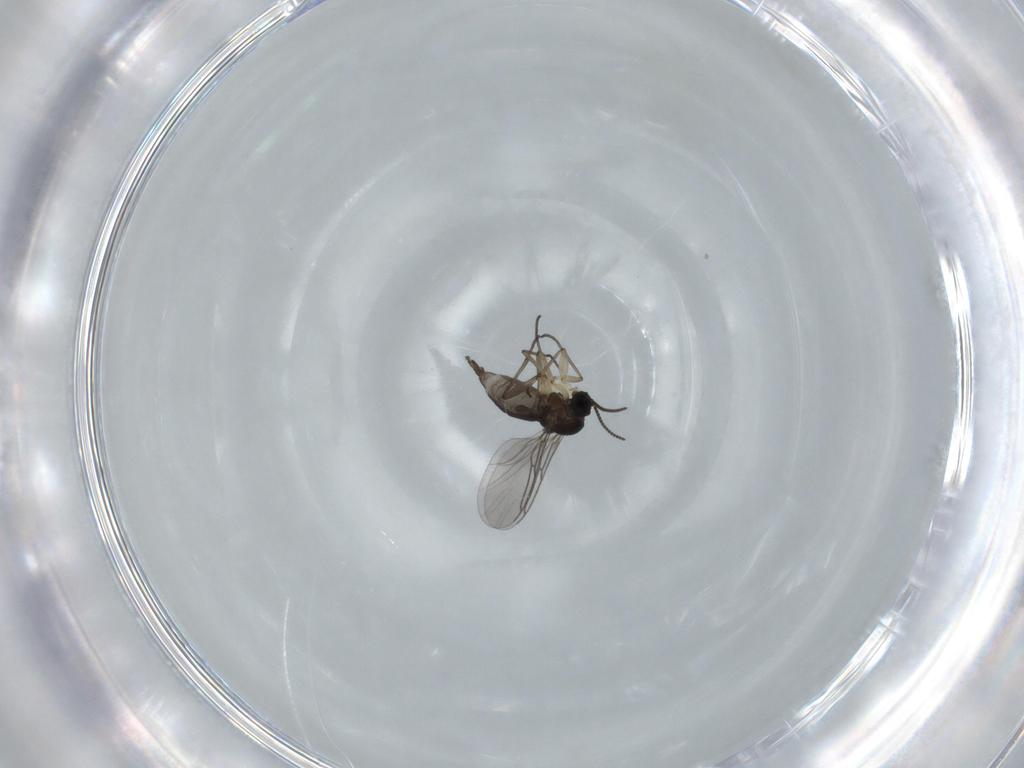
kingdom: Animalia
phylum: Arthropoda
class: Insecta
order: Diptera
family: Sciaridae
